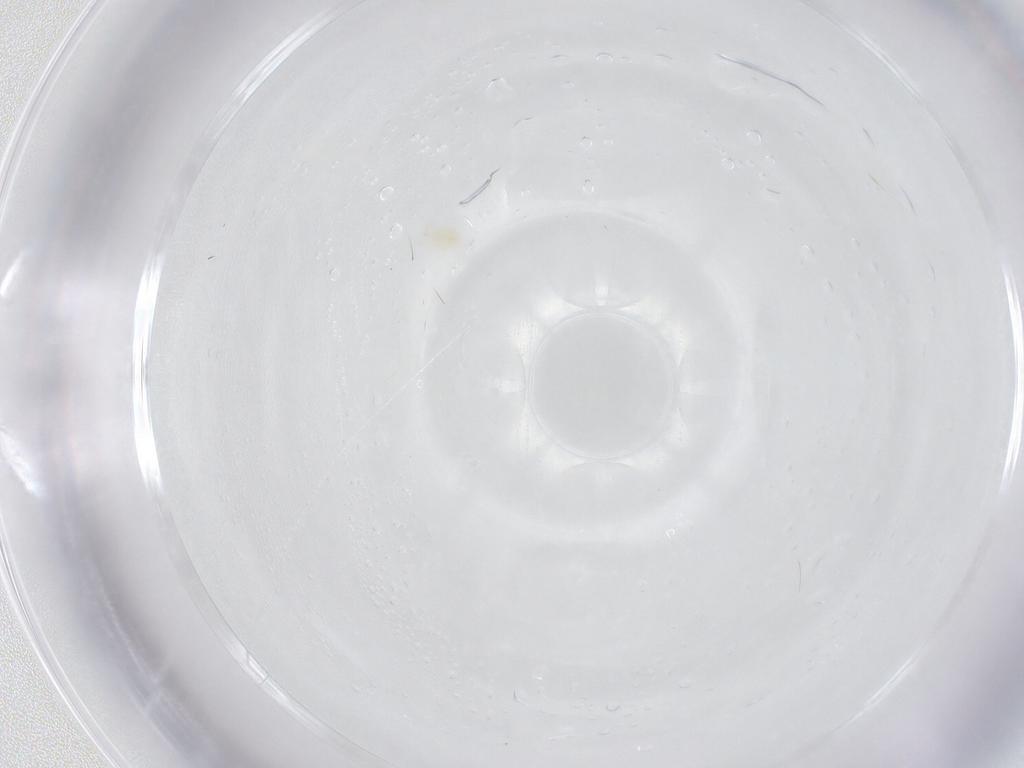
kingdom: Animalia
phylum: Arthropoda
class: Arachnida
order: Trombidiformes
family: Tetranychidae
